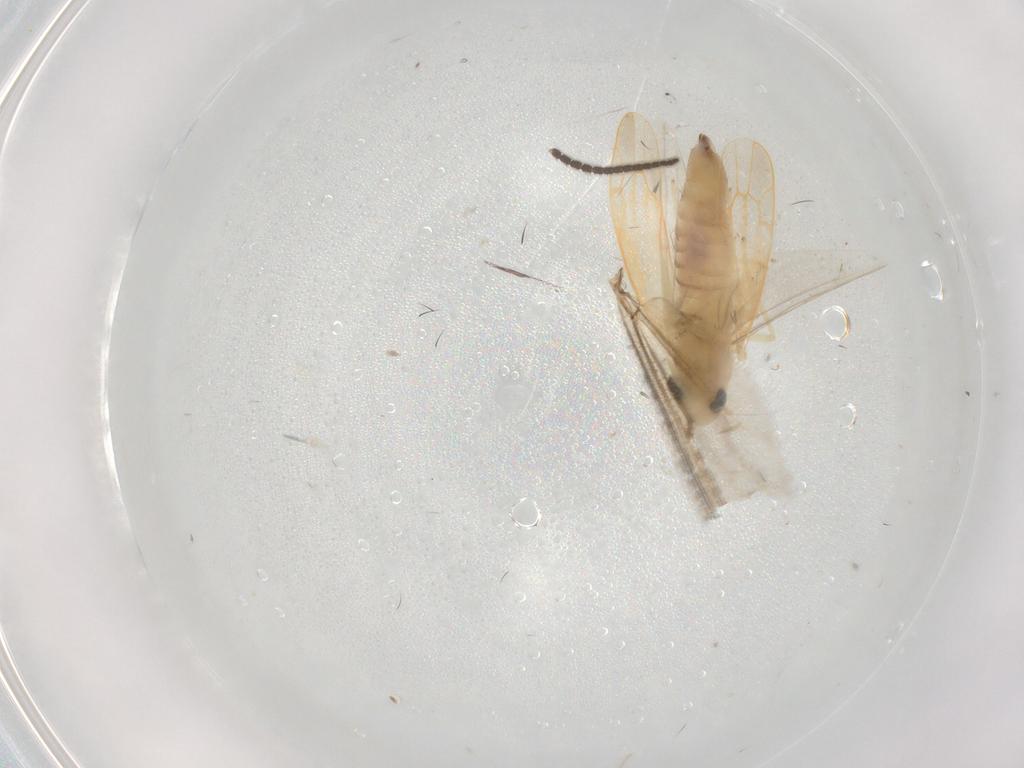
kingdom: Animalia
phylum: Arthropoda
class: Insecta
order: Hemiptera
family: Cicadellidae
